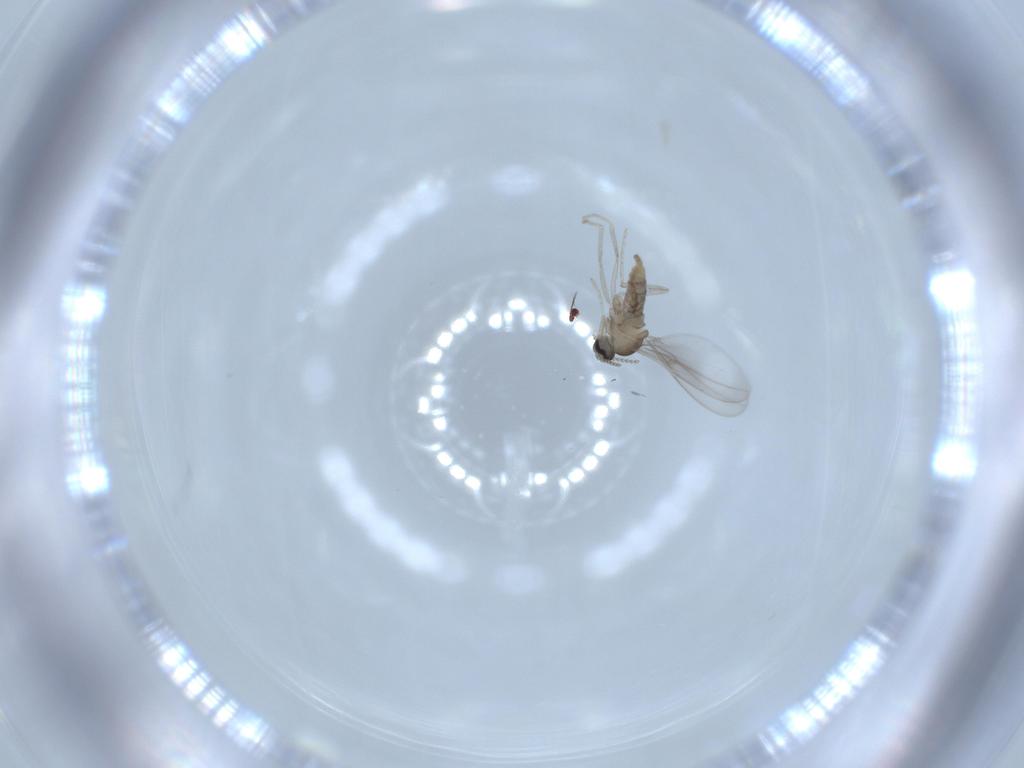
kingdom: Animalia
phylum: Arthropoda
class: Insecta
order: Diptera
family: Cecidomyiidae
